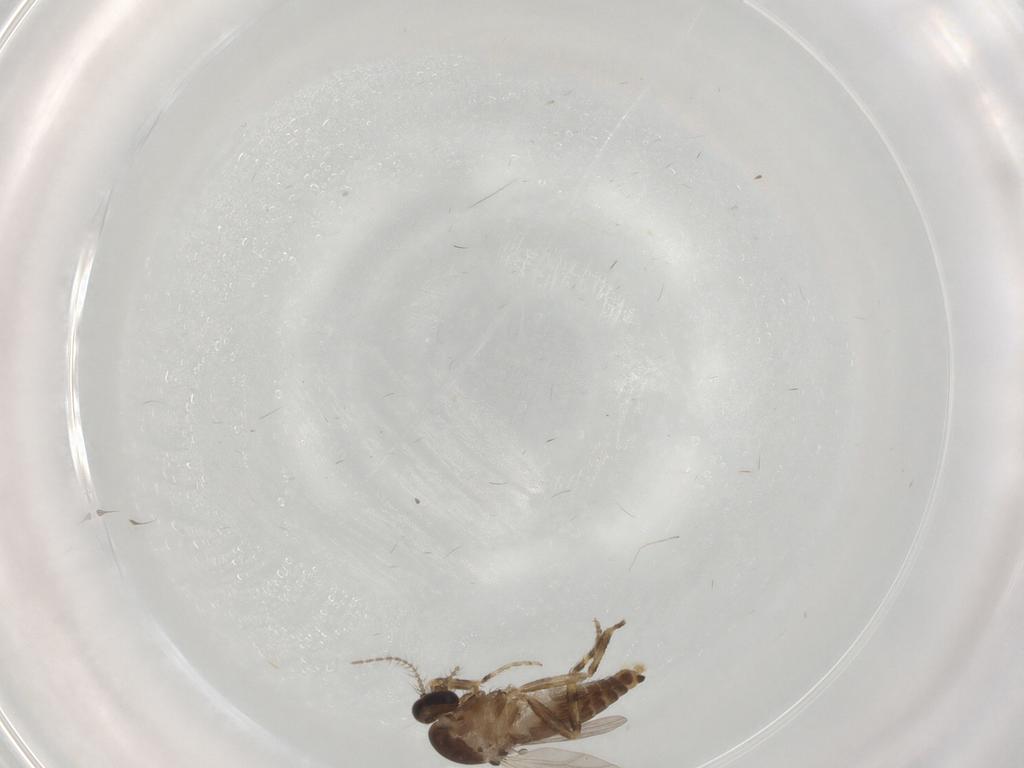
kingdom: Animalia
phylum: Arthropoda
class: Insecta
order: Diptera
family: Ceratopogonidae
